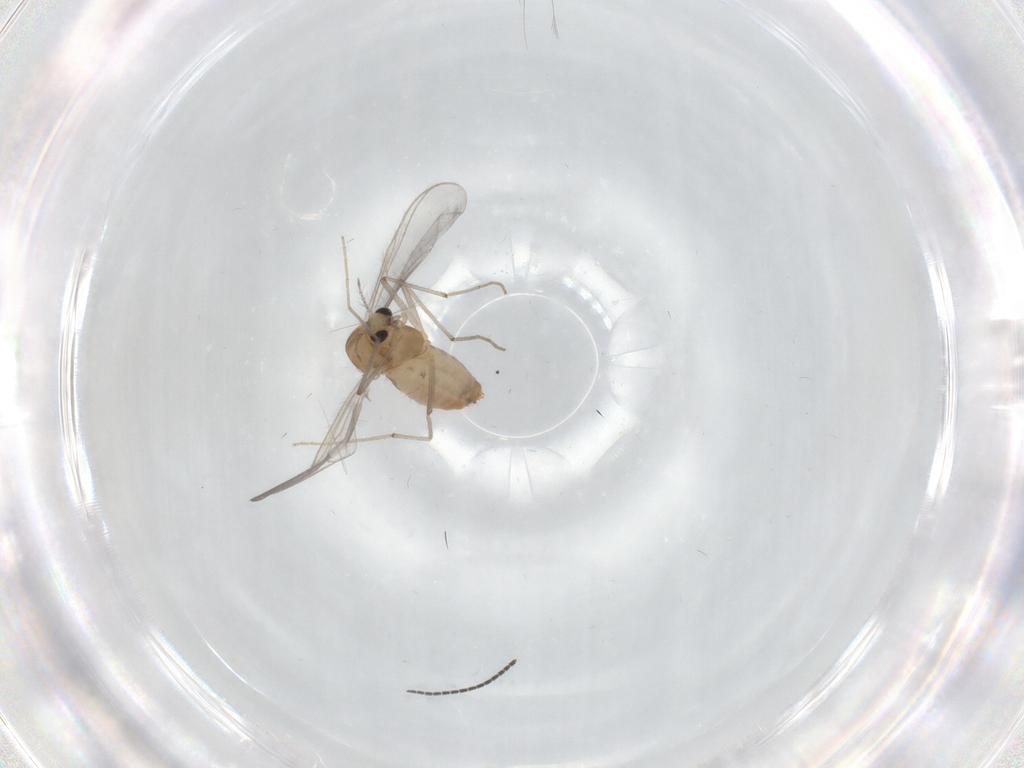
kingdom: Animalia
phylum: Arthropoda
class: Insecta
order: Diptera
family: Chironomidae
